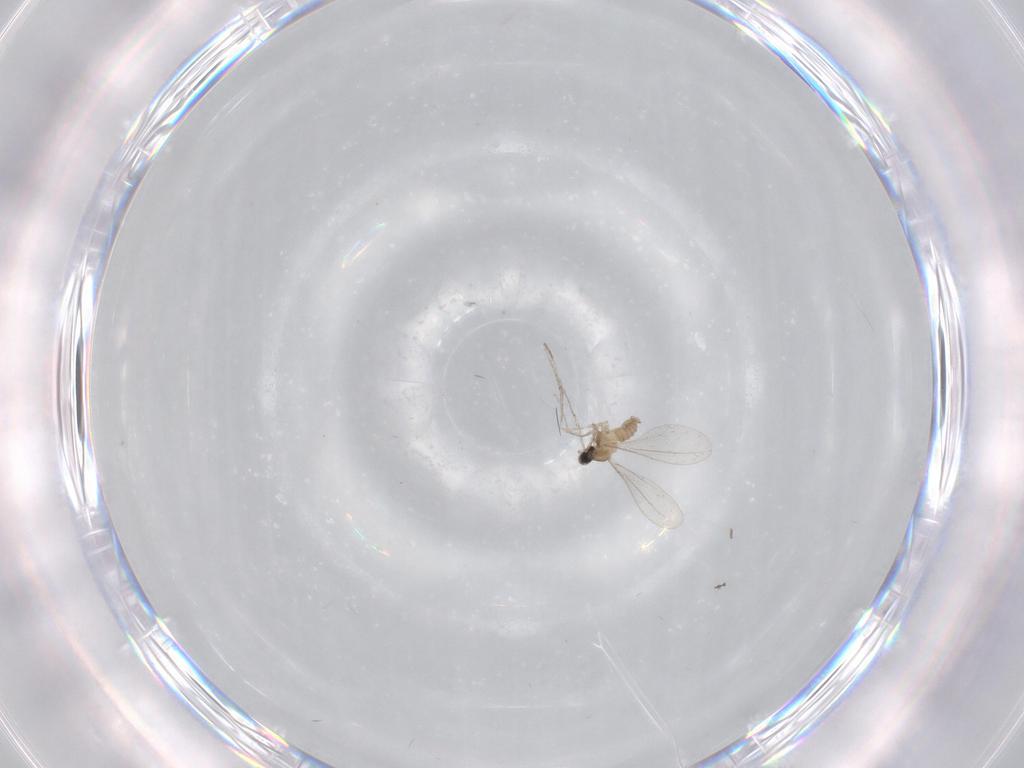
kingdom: Animalia
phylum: Arthropoda
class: Insecta
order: Diptera
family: Cecidomyiidae
